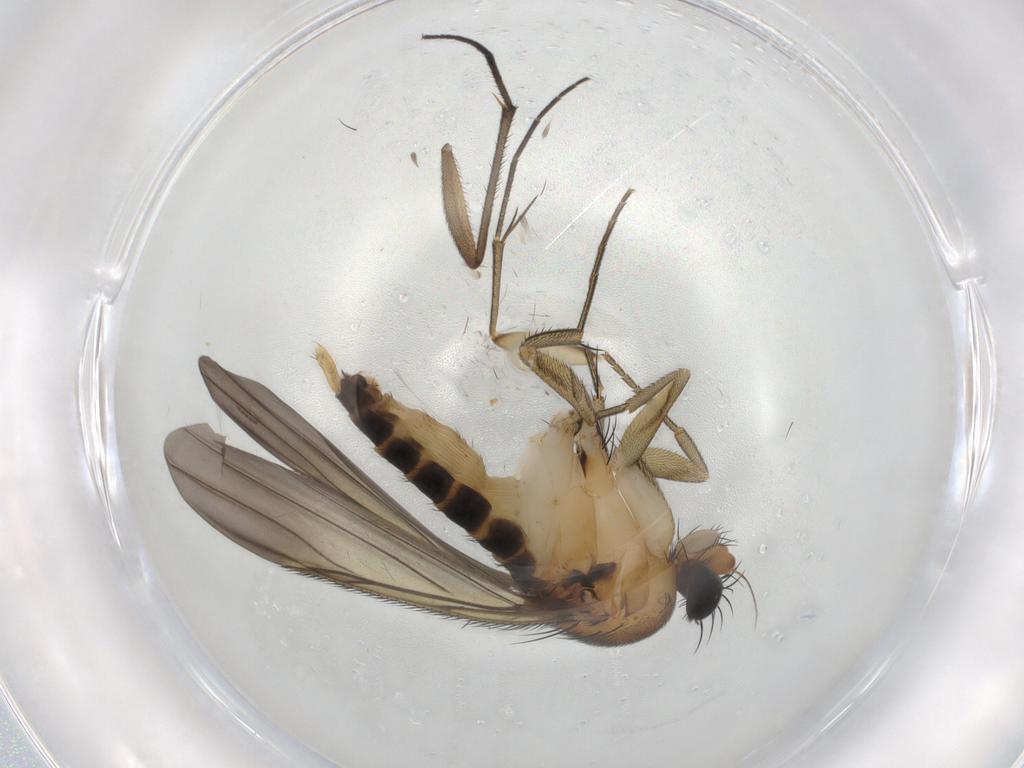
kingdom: Animalia
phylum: Arthropoda
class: Insecta
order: Diptera
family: Phoridae
